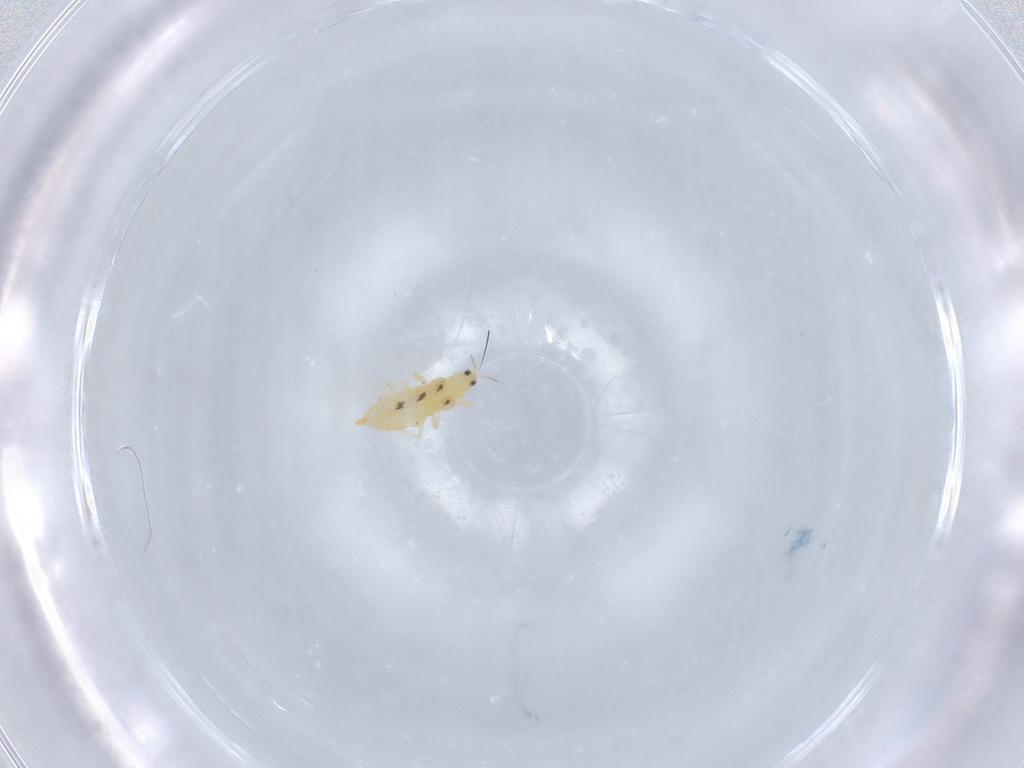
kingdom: Animalia
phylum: Arthropoda
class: Insecta
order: Thysanoptera
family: Thripidae
